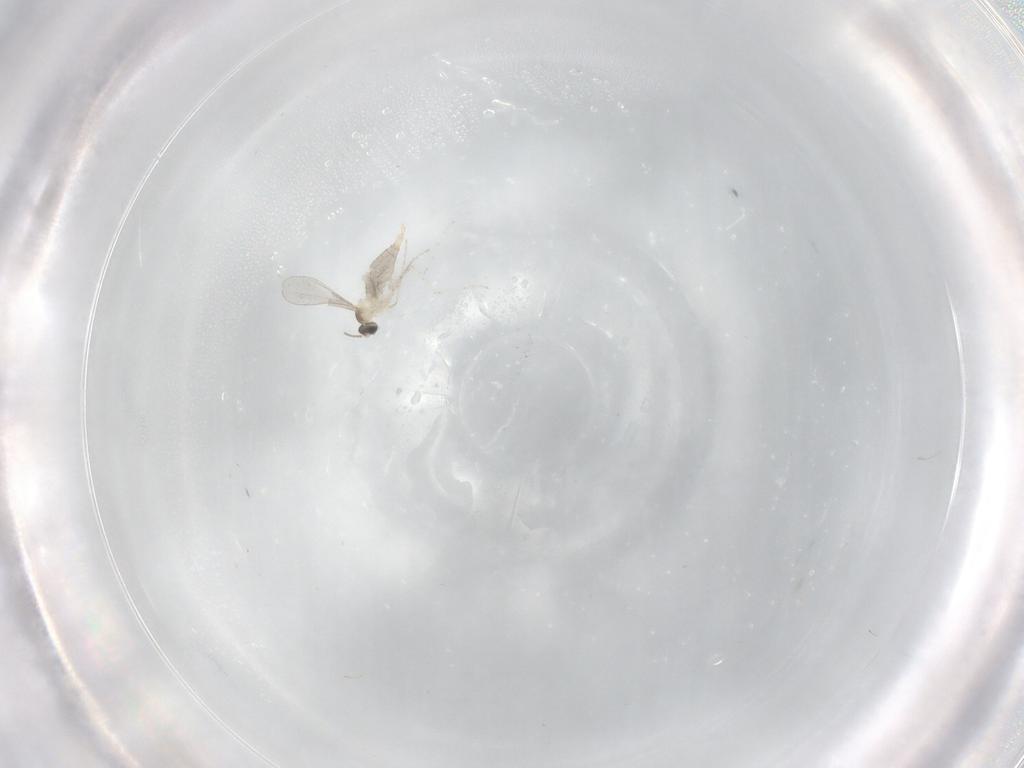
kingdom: Animalia
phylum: Arthropoda
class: Insecta
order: Diptera
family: Cecidomyiidae
